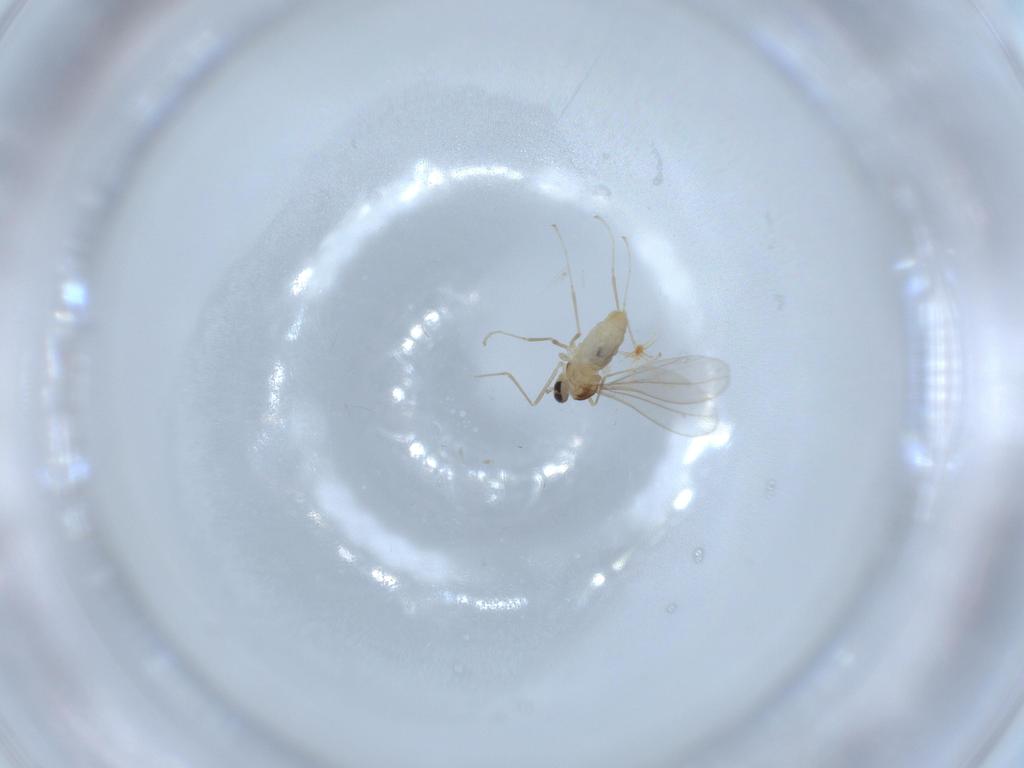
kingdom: Animalia
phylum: Arthropoda
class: Insecta
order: Diptera
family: Cecidomyiidae
